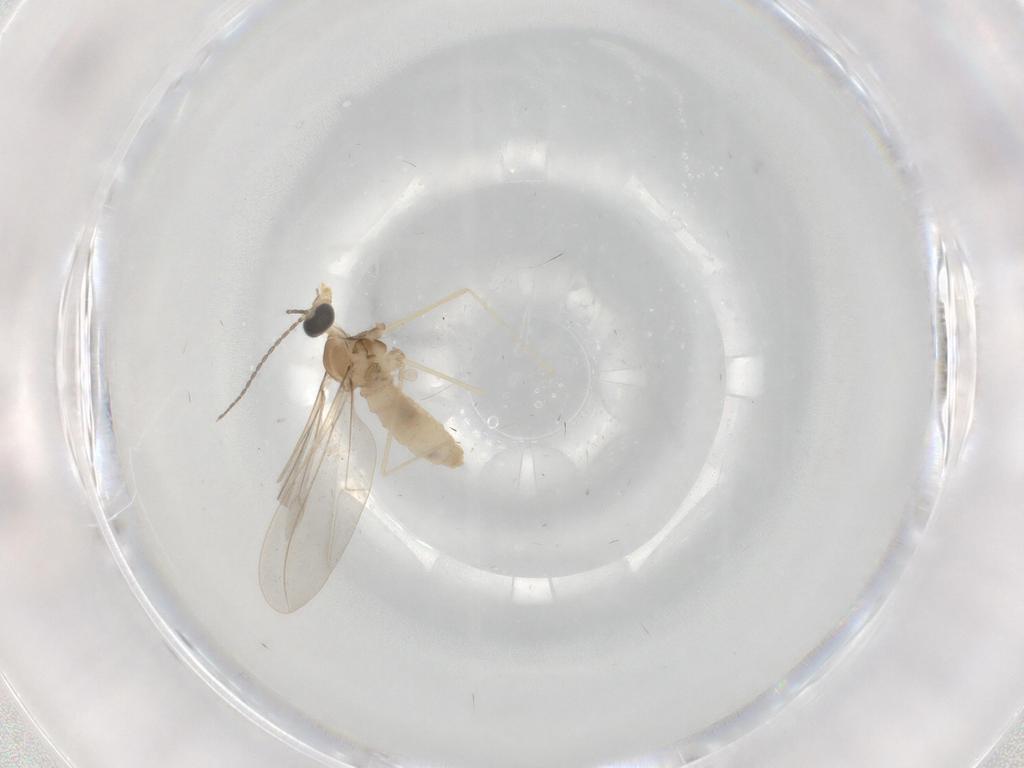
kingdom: Animalia
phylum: Arthropoda
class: Insecta
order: Diptera
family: Cecidomyiidae
